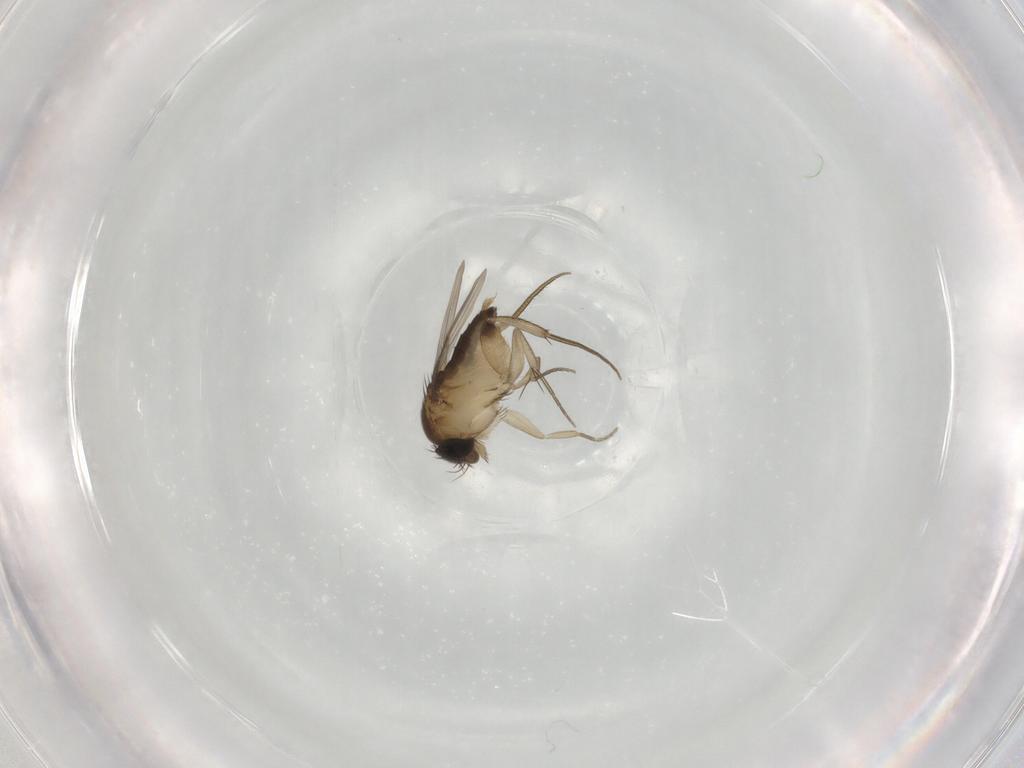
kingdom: Animalia
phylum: Arthropoda
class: Insecta
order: Diptera
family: Phoridae
